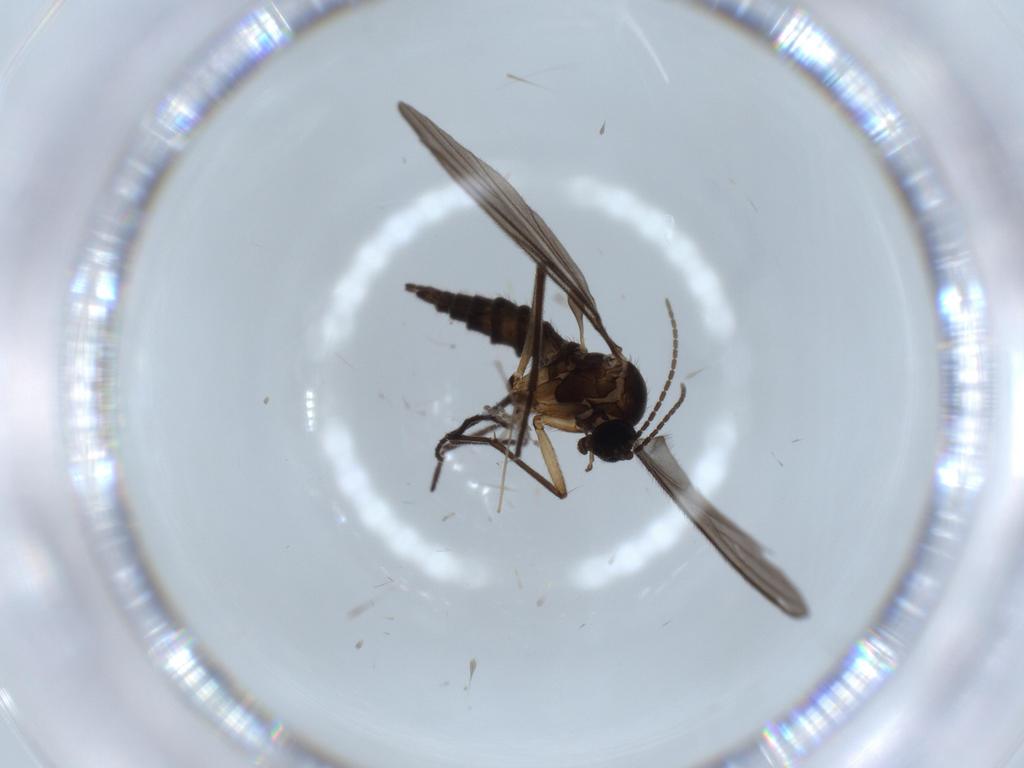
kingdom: Animalia
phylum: Arthropoda
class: Insecta
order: Diptera
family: Cecidomyiidae
